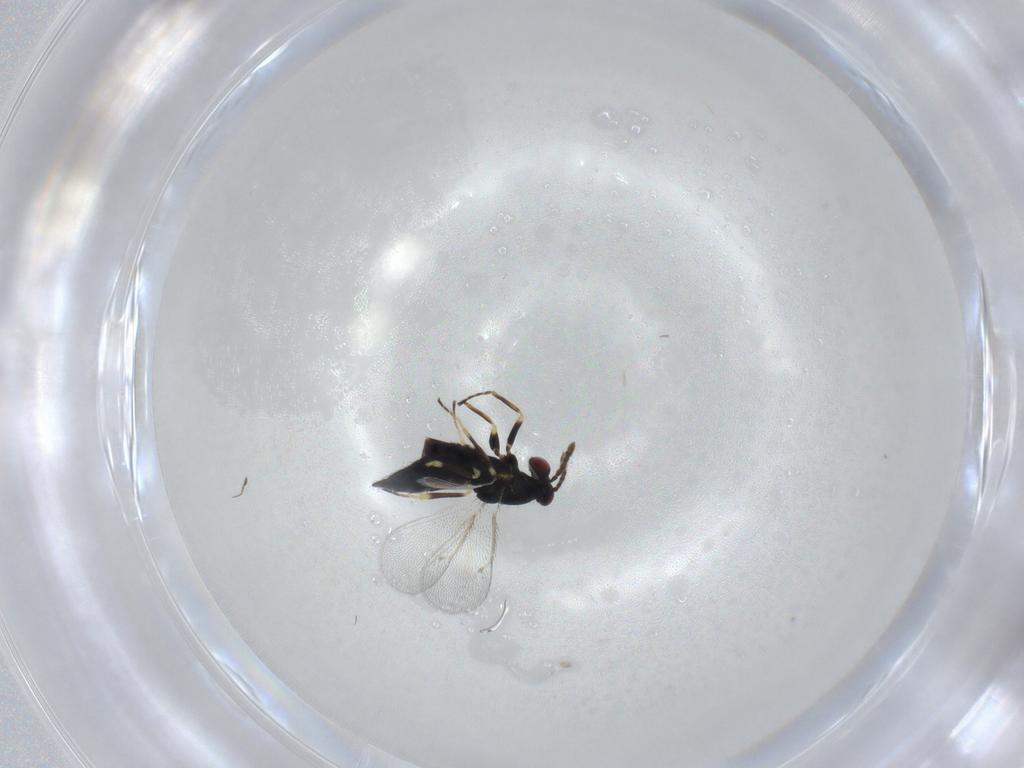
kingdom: Animalia
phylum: Arthropoda
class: Insecta
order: Hymenoptera
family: Eulophidae
